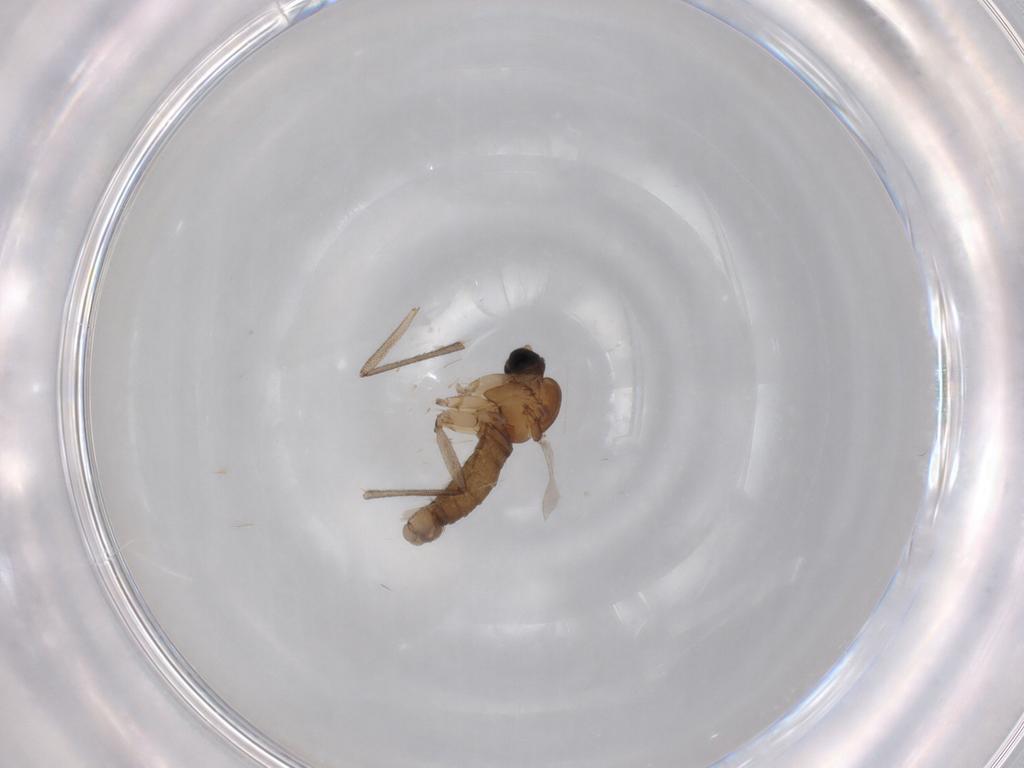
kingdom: Animalia
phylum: Arthropoda
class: Insecta
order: Diptera
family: Sciaridae
